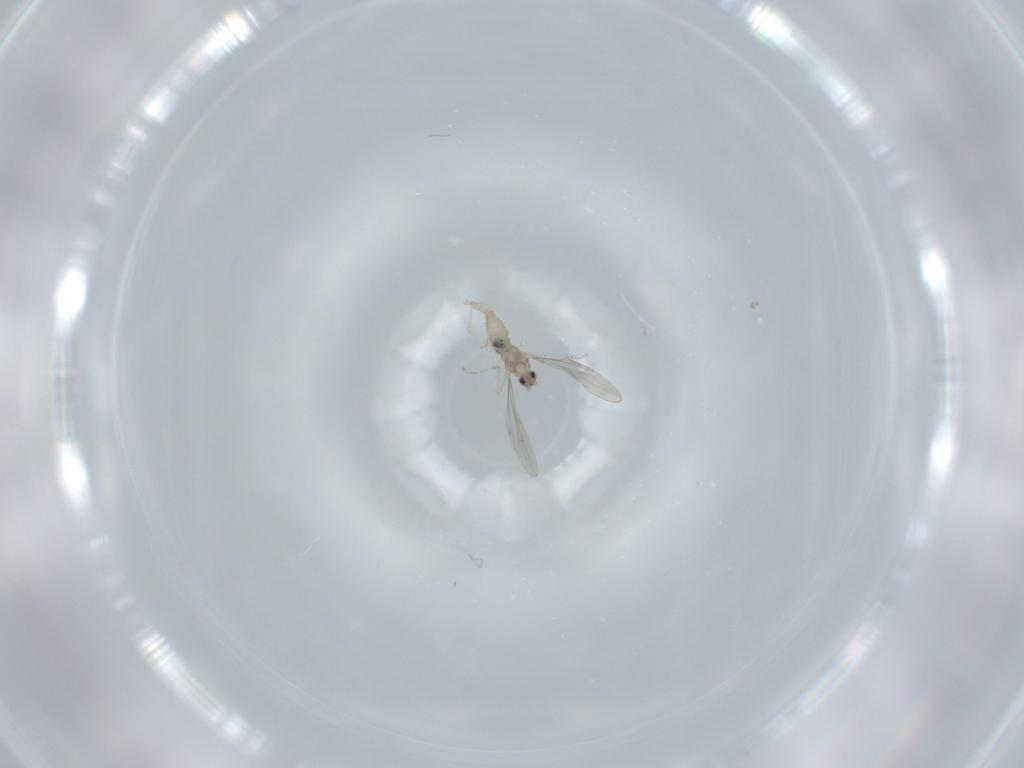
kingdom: Animalia
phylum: Arthropoda
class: Insecta
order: Diptera
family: Cecidomyiidae
